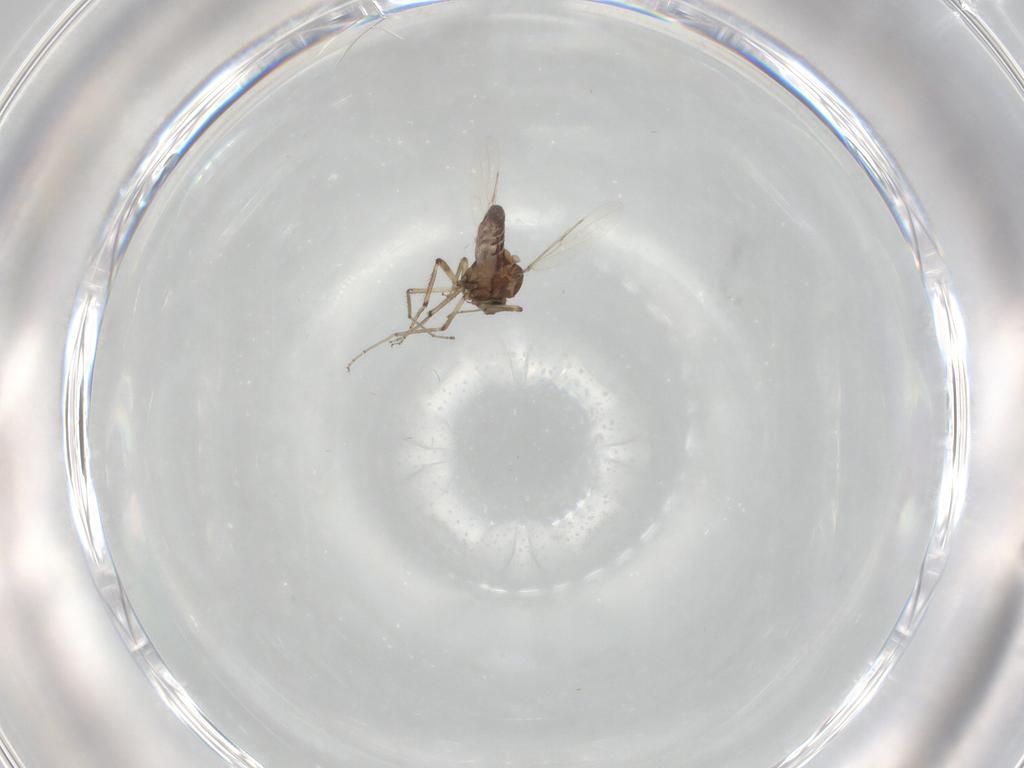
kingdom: Animalia
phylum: Arthropoda
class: Insecta
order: Diptera
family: Ceratopogonidae
